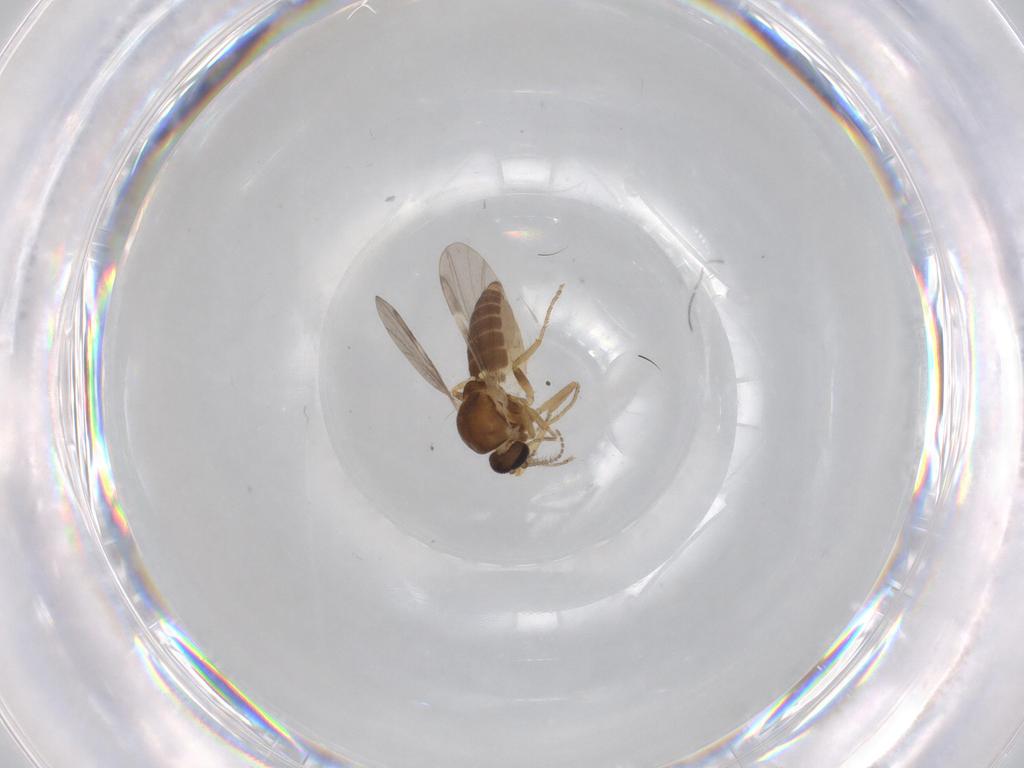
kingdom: Animalia
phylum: Arthropoda
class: Insecta
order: Diptera
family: Ceratopogonidae
